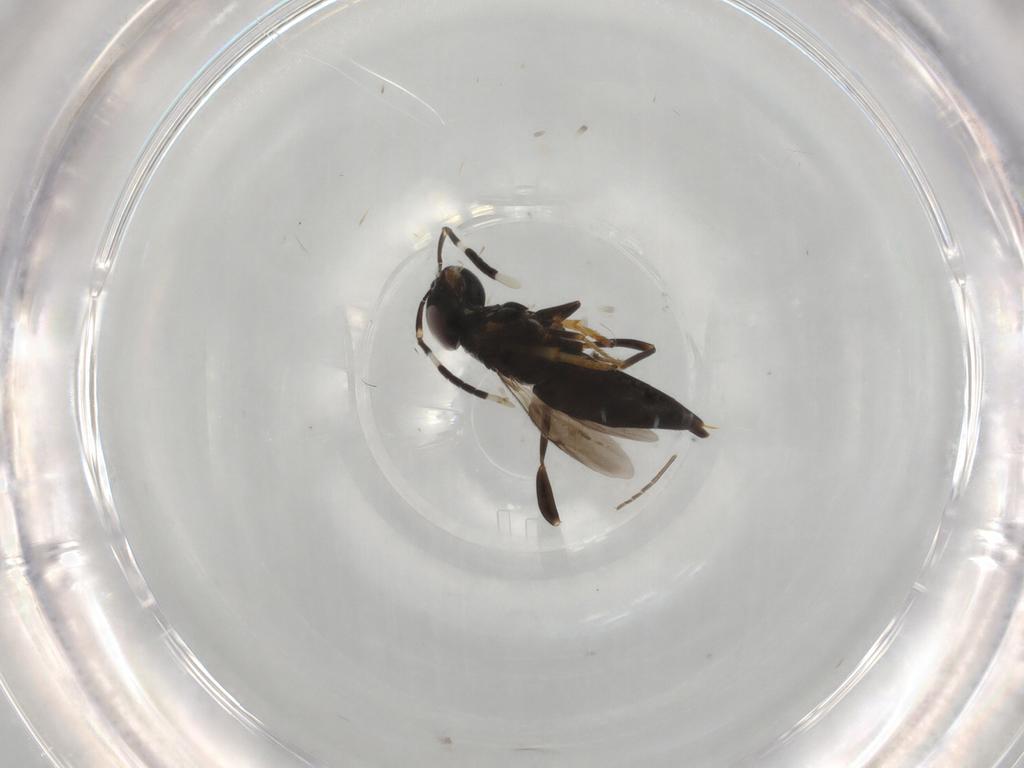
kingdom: Animalia
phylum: Arthropoda
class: Insecta
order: Hymenoptera
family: Encyrtidae
